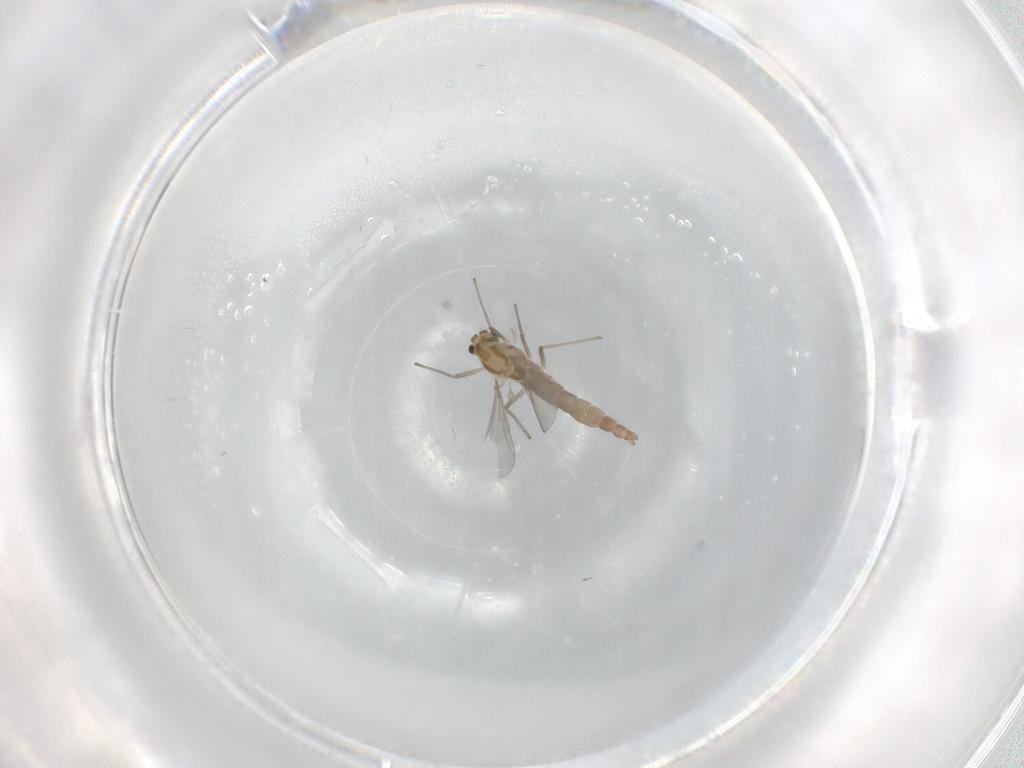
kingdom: Animalia
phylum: Arthropoda
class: Insecta
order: Diptera
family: Chironomidae
